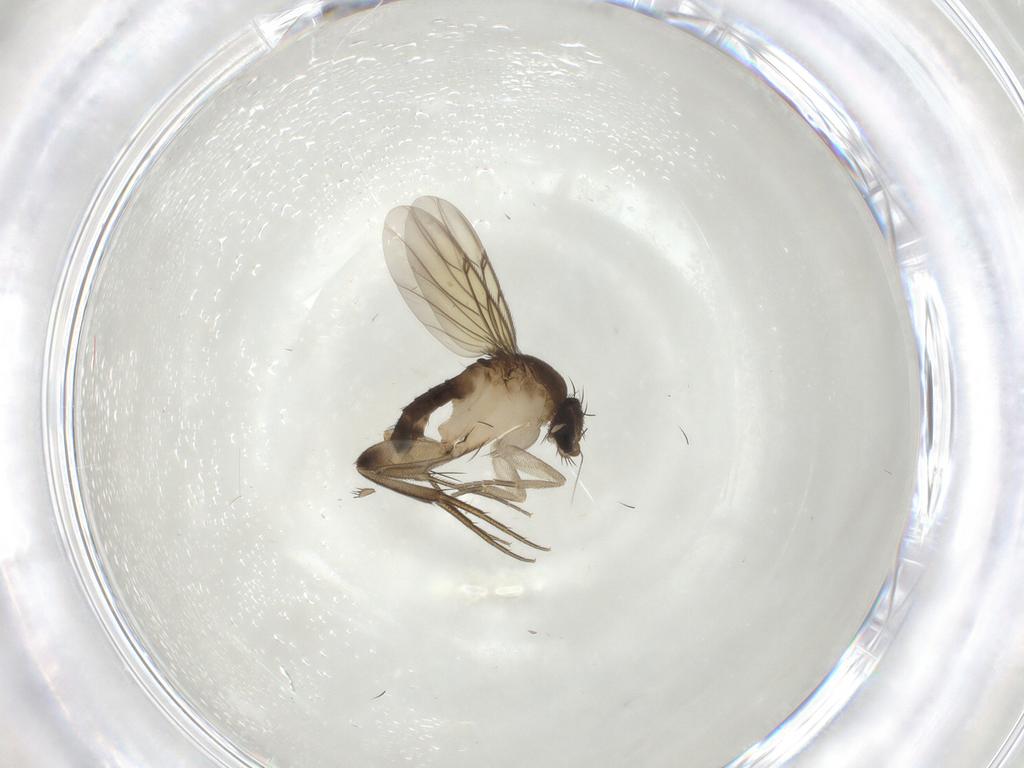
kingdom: Animalia
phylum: Arthropoda
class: Insecta
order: Diptera
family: Phoridae
